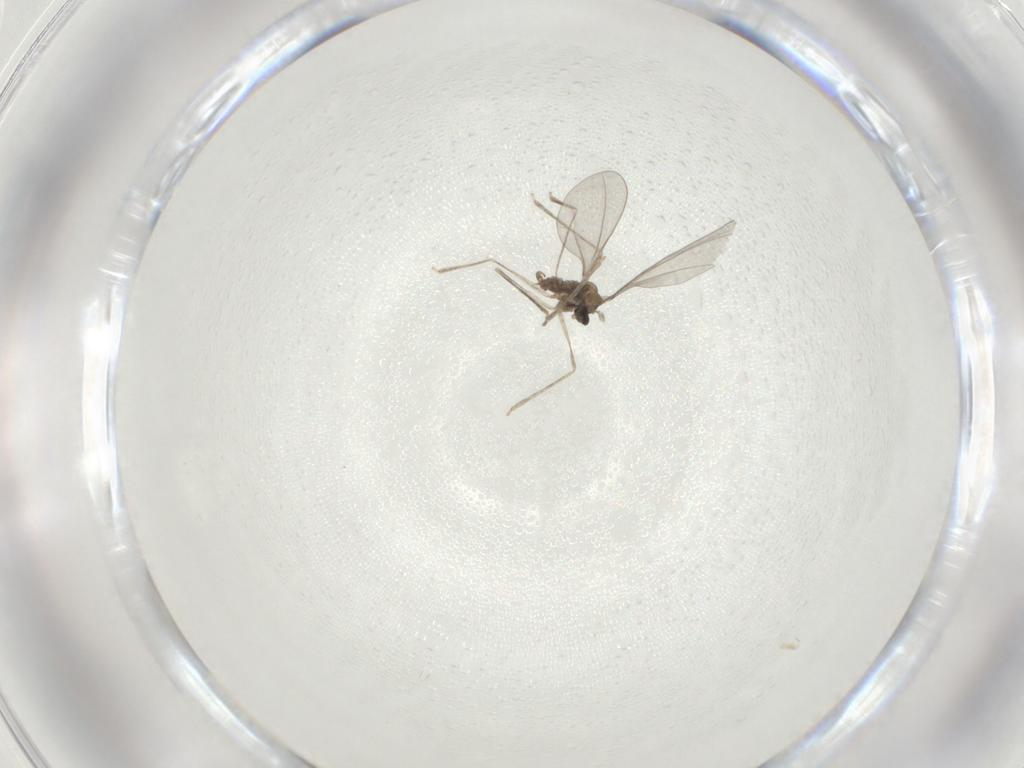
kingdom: Animalia
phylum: Arthropoda
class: Insecta
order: Diptera
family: Cecidomyiidae
